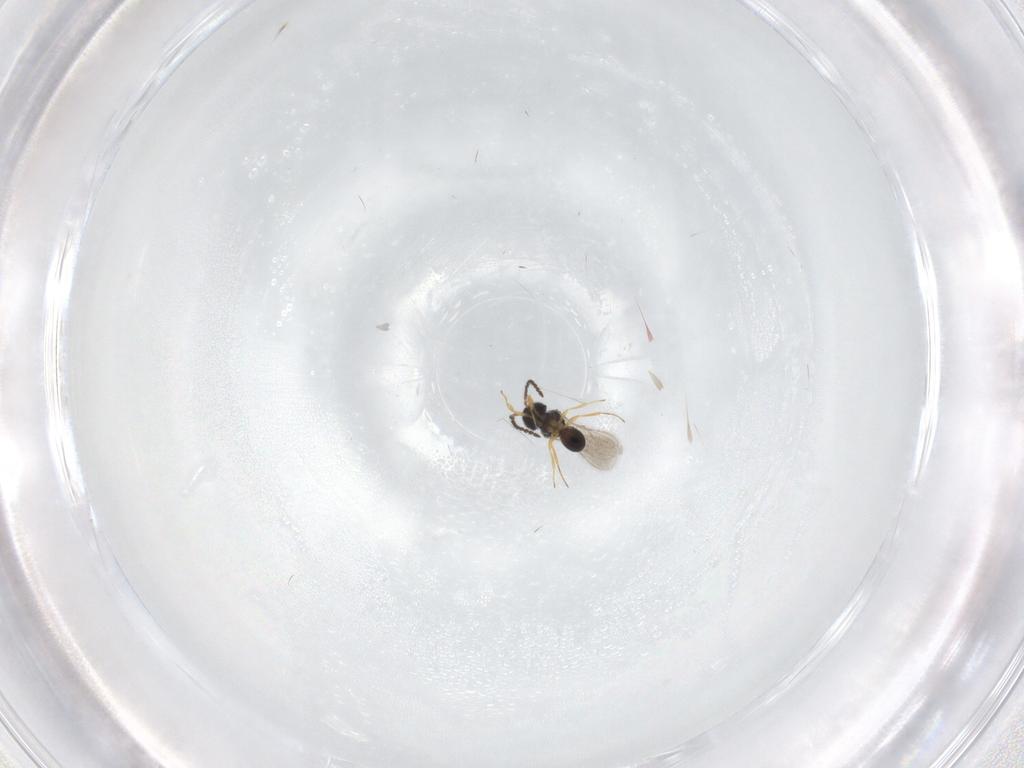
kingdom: Animalia
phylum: Arthropoda
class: Insecta
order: Hymenoptera
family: Scelionidae
